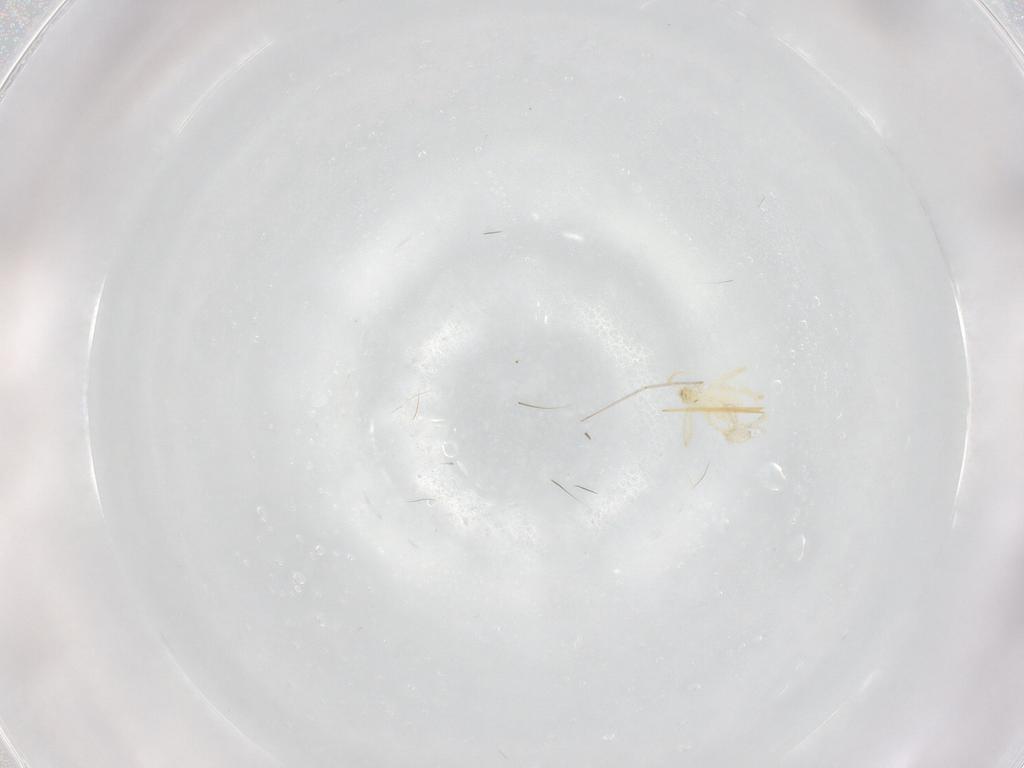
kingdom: Animalia
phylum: Arthropoda
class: Arachnida
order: Trombidiformes
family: Erythraeidae
